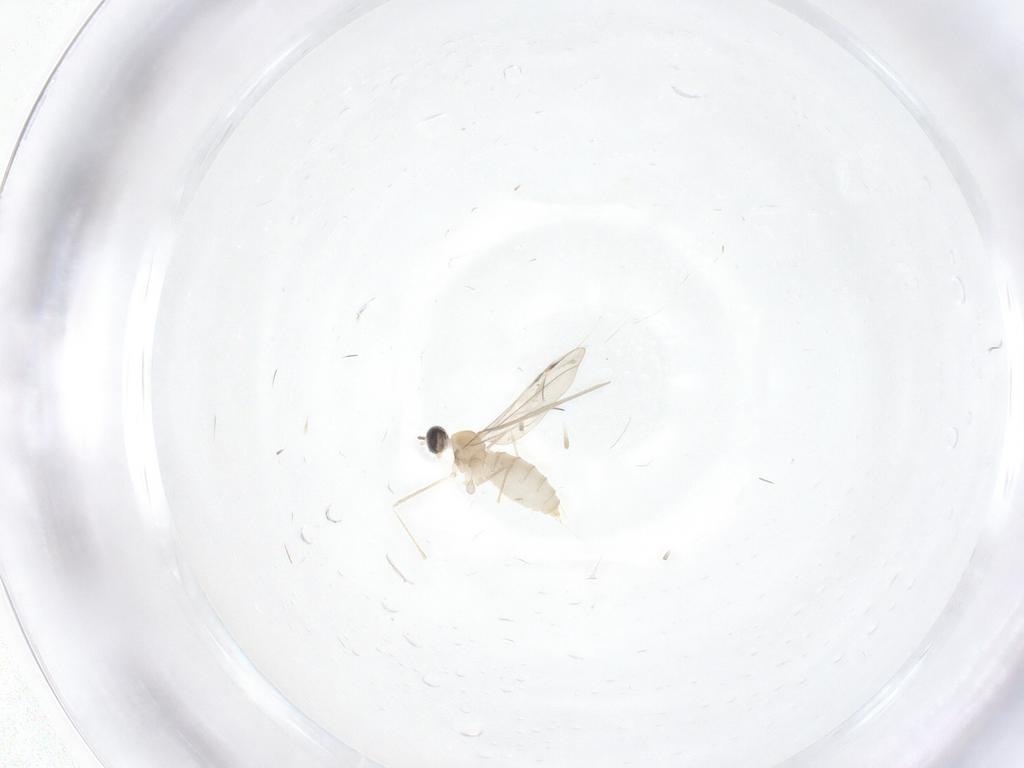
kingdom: Animalia
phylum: Arthropoda
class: Insecta
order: Diptera
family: Cecidomyiidae
